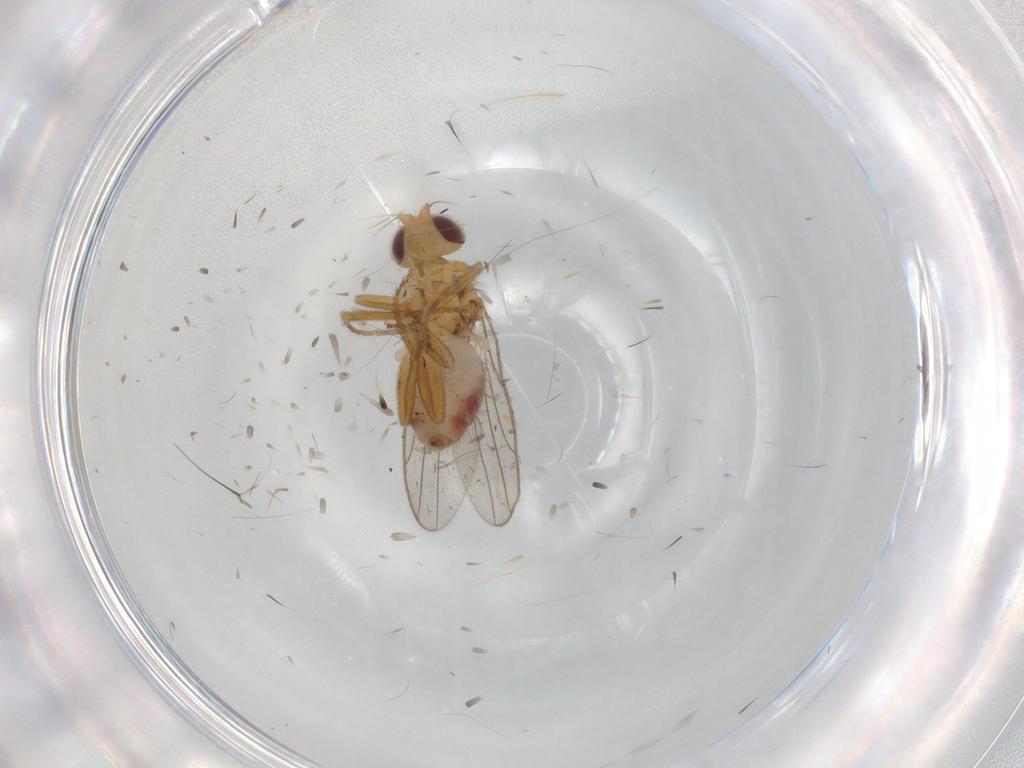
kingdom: Animalia
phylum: Arthropoda
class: Insecta
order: Diptera
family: Chloropidae
